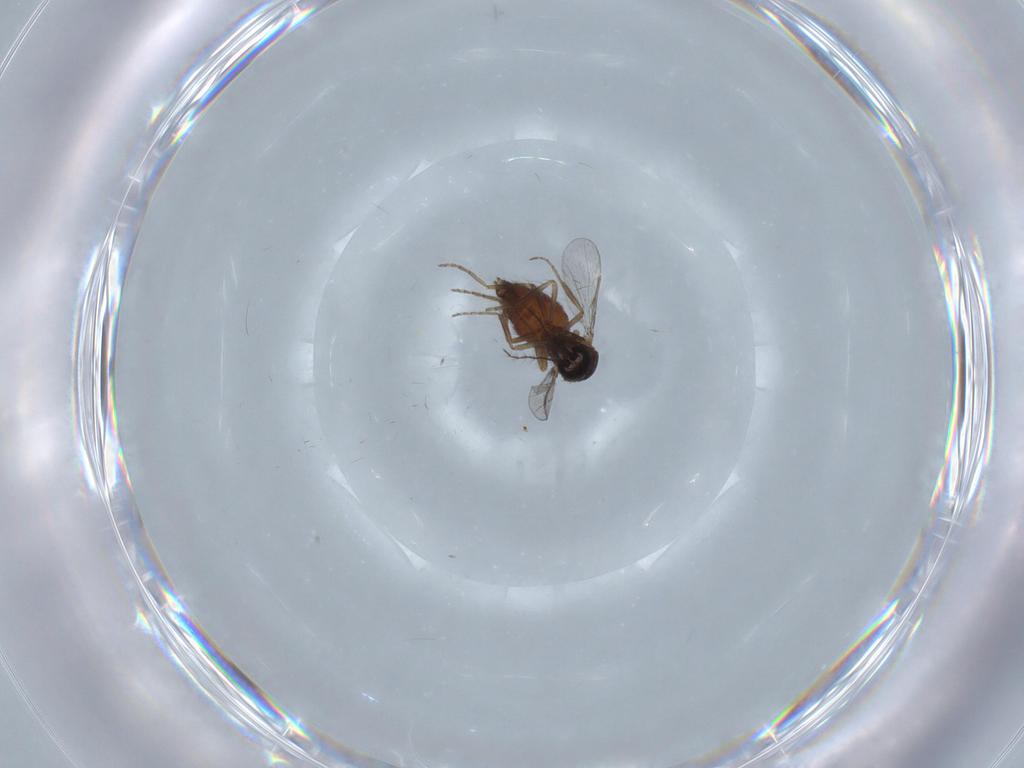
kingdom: Animalia
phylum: Arthropoda
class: Insecta
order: Diptera
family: Chironomidae
